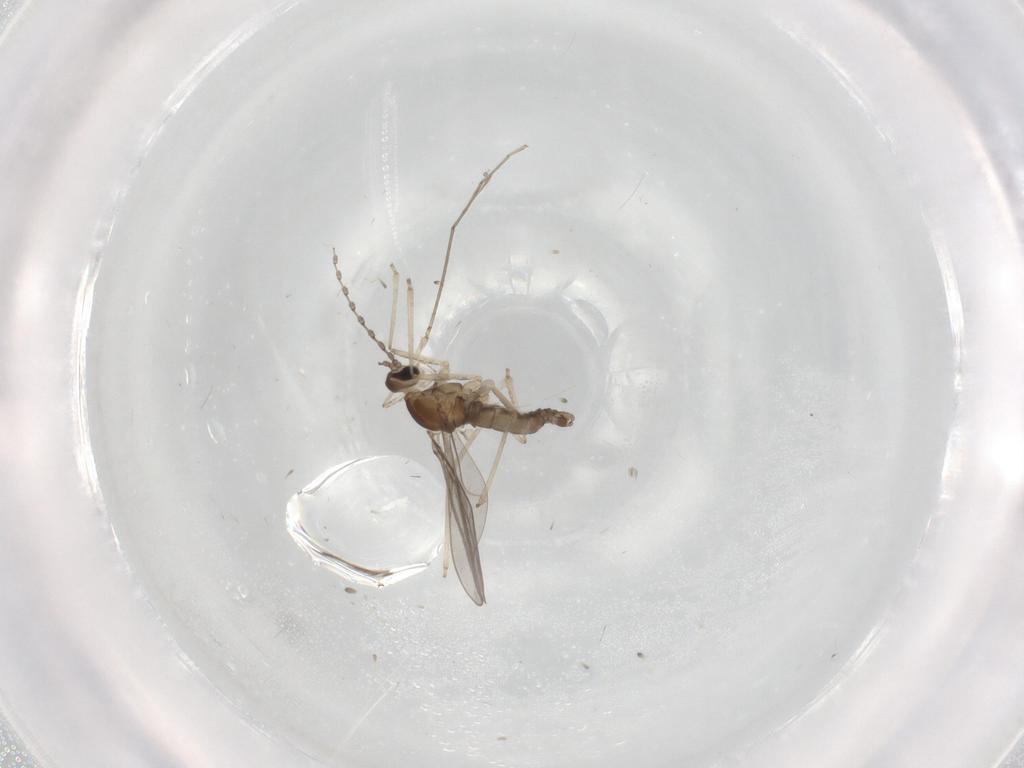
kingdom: Animalia
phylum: Arthropoda
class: Insecta
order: Diptera
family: Cecidomyiidae
